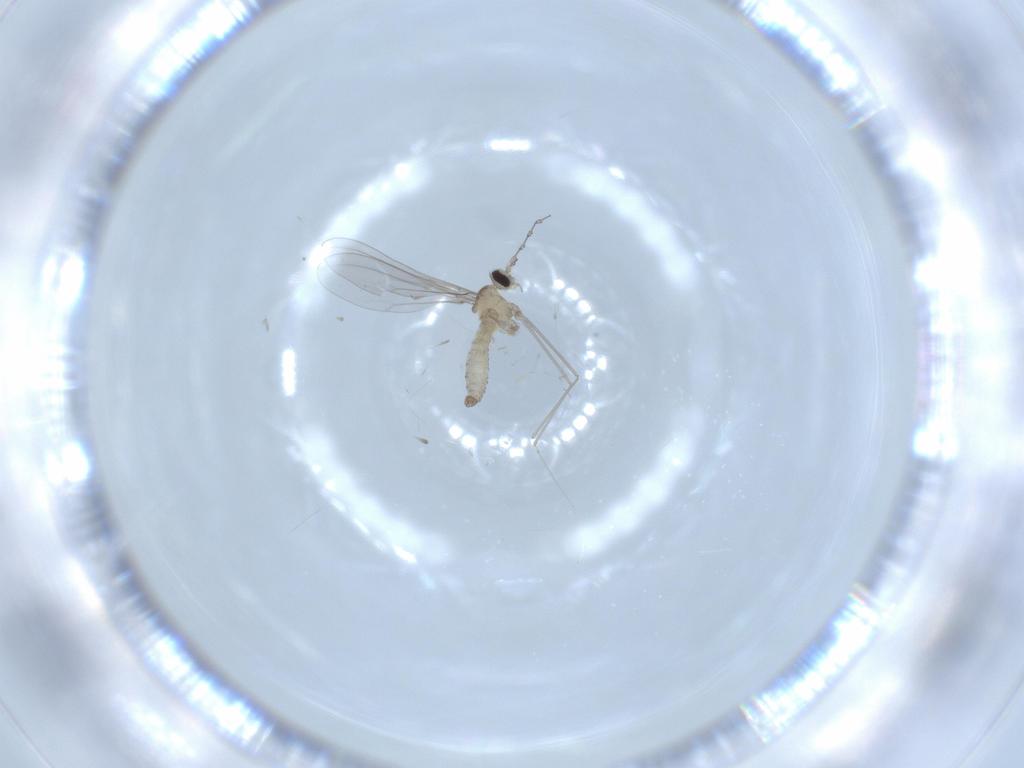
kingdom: Animalia
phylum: Arthropoda
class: Insecta
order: Diptera
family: Cecidomyiidae
